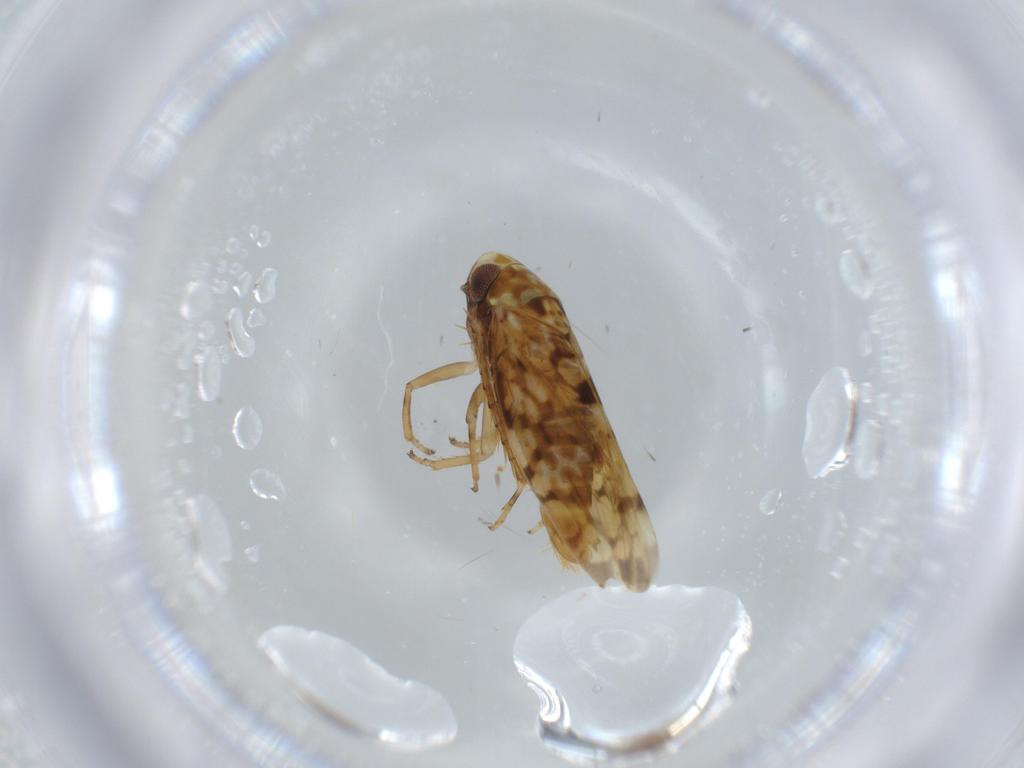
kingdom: Animalia
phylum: Arthropoda
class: Insecta
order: Hemiptera
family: Cicadellidae
